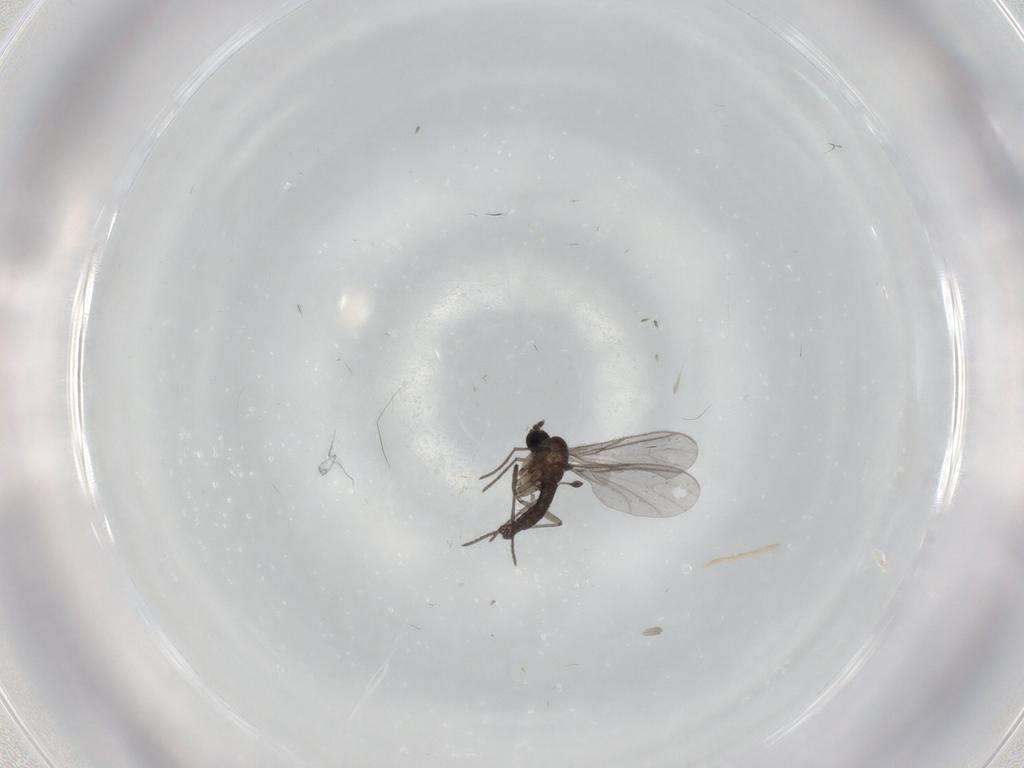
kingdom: Animalia
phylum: Arthropoda
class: Insecta
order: Diptera
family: Sciaridae
